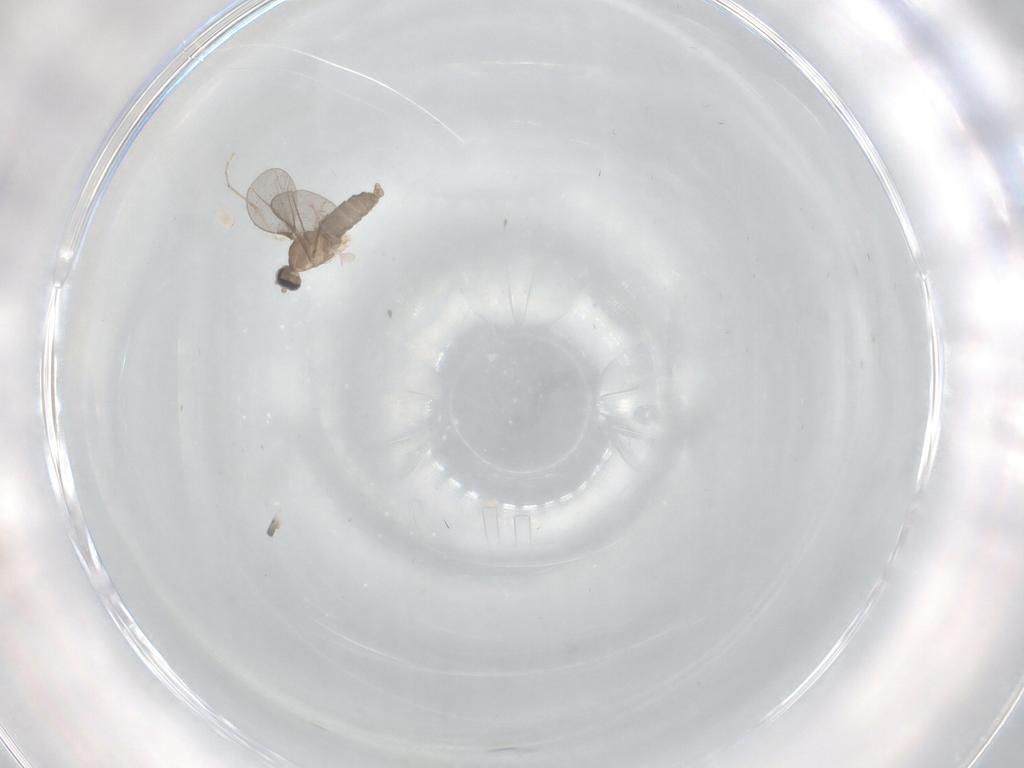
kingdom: Animalia
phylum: Arthropoda
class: Insecta
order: Diptera
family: Cecidomyiidae
